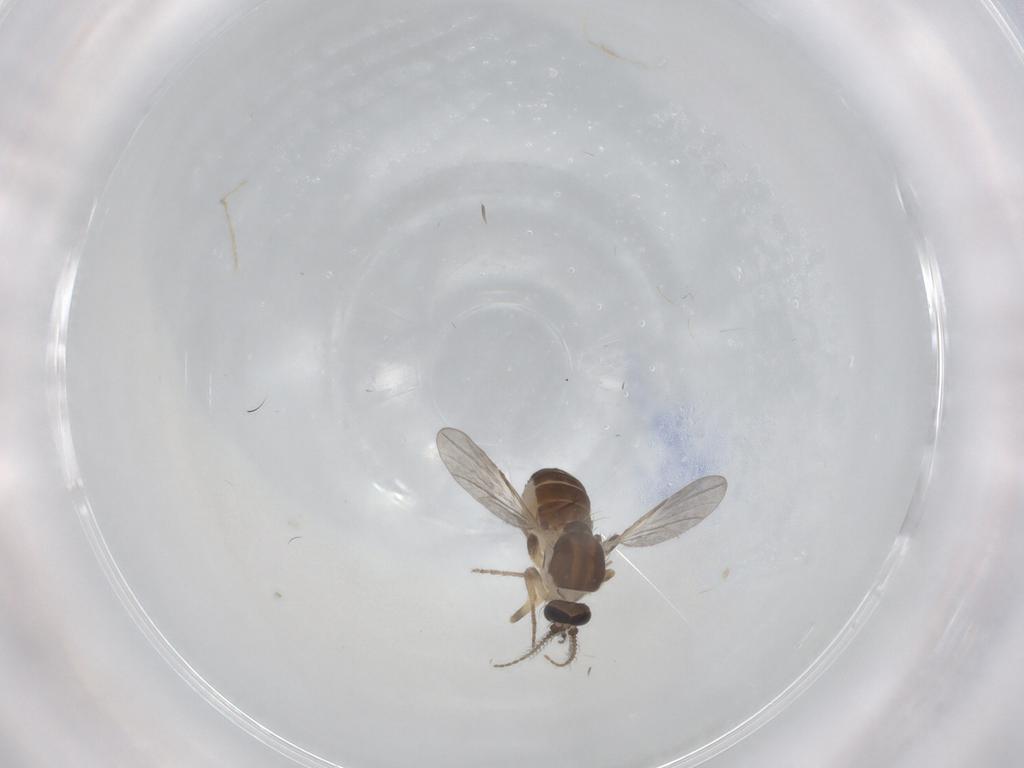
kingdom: Animalia
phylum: Arthropoda
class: Insecta
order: Diptera
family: Ceratopogonidae
